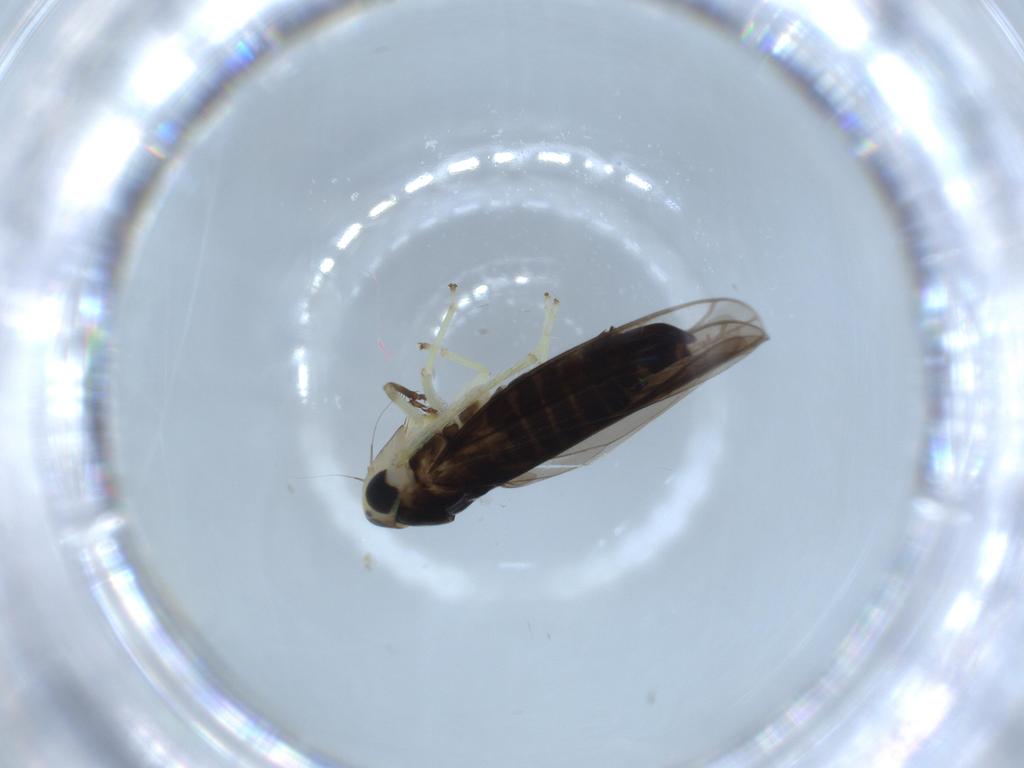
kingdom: Animalia
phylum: Arthropoda
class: Insecta
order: Hemiptera
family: Cicadellidae
